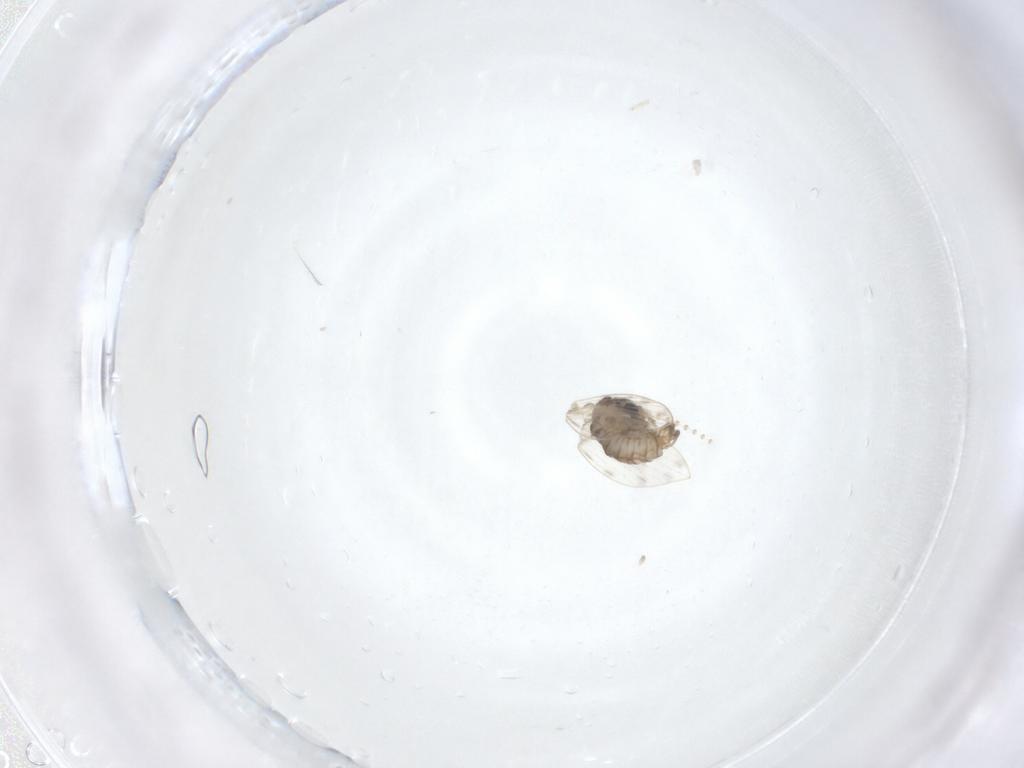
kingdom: Animalia
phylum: Arthropoda
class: Insecta
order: Diptera
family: Psychodidae
